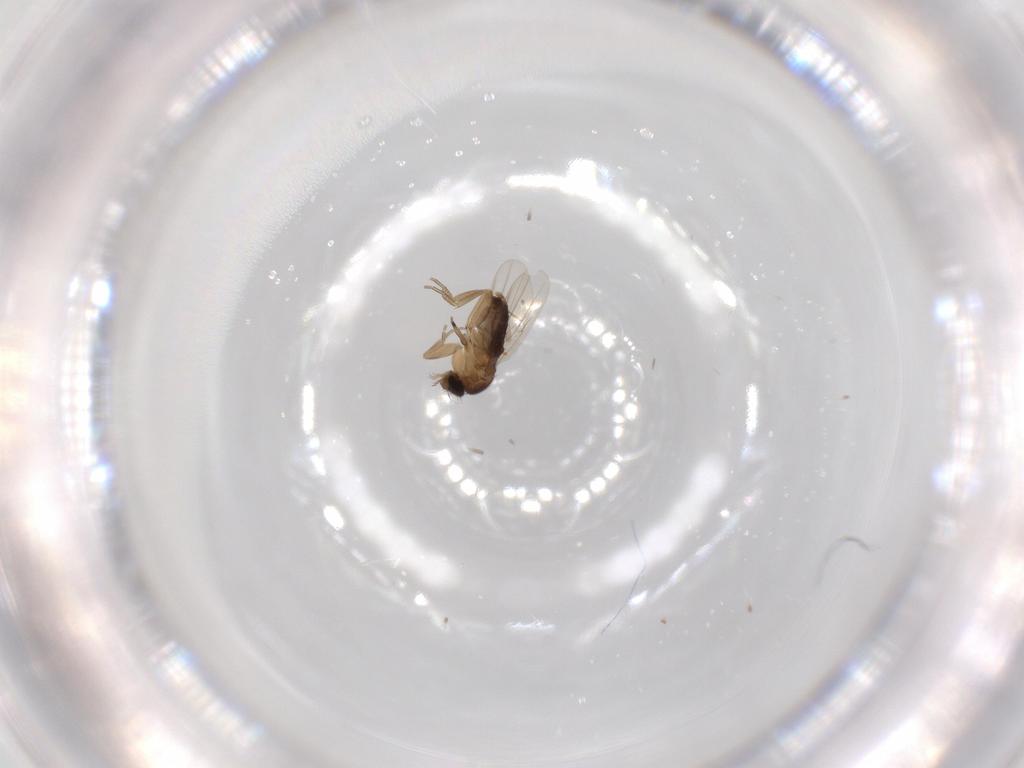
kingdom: Animalia
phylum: Arthropoda
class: Insecta
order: Diptera
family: Phoridae
